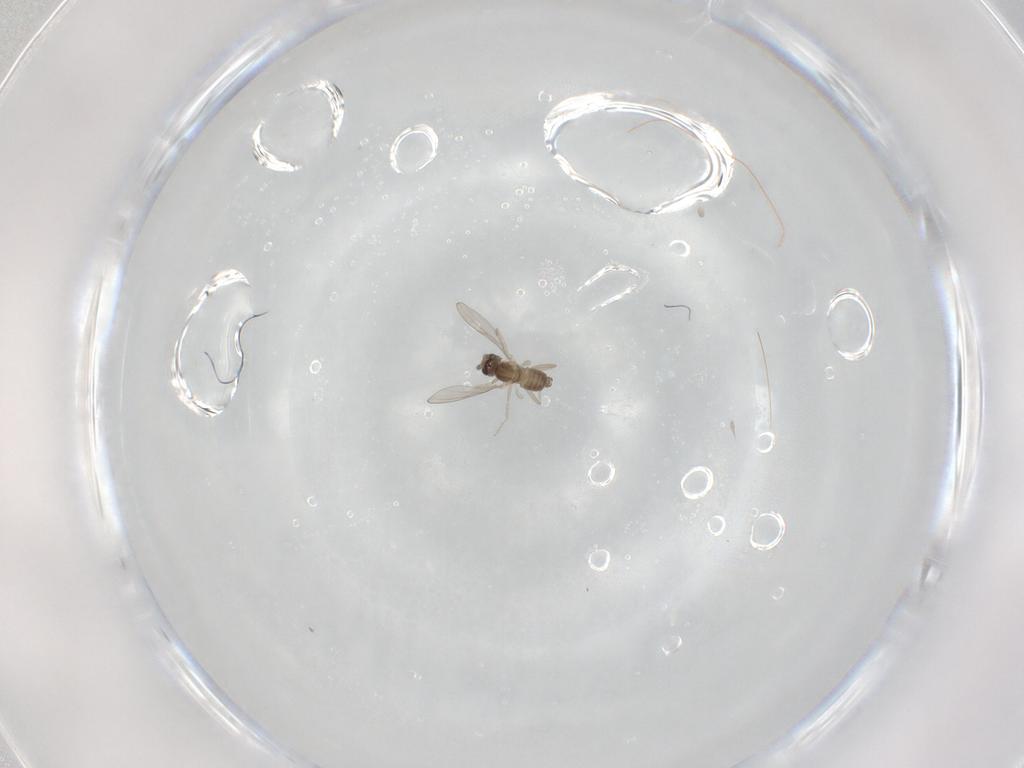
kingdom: Animalia
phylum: Arthropoda
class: Insecta
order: Diptera
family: Cecidomyiidae
